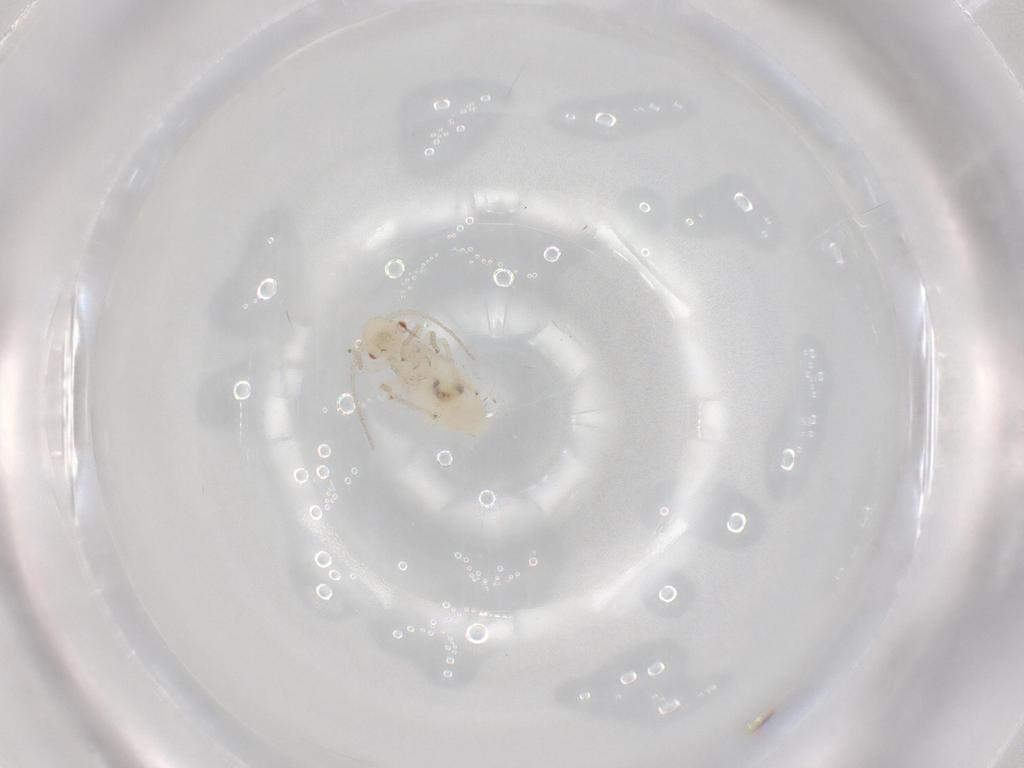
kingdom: Animalia
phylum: Arthropoda
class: Insecta
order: Psocodea
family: Caeciliusidae
